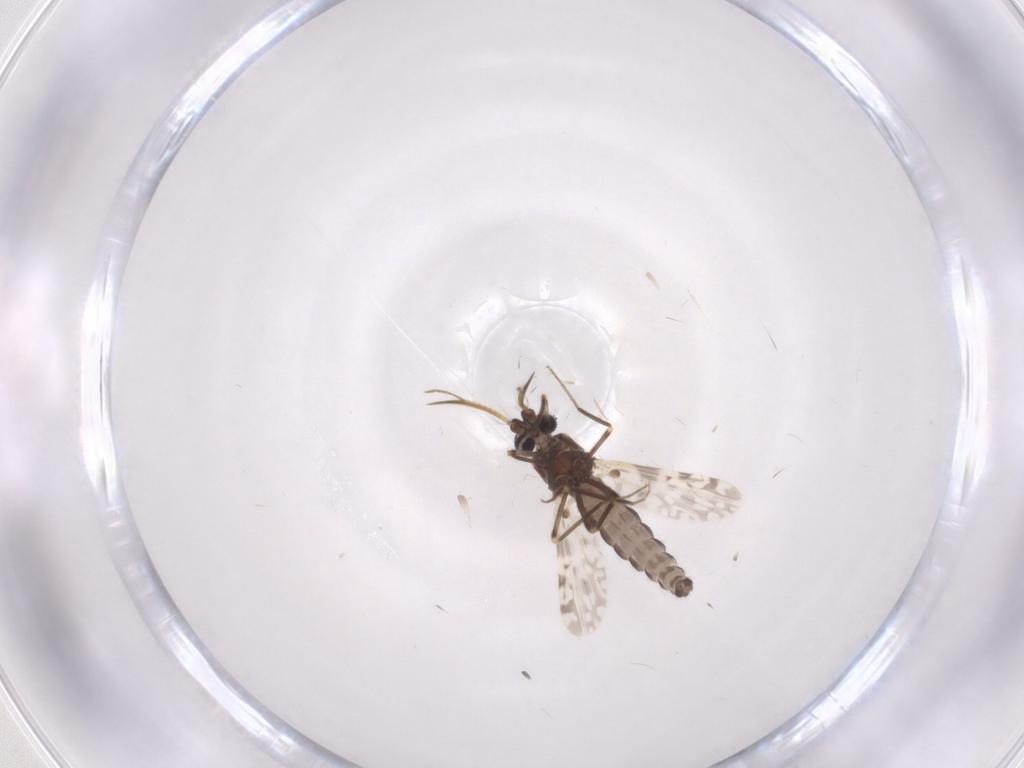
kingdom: Animalia
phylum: Arthropoda
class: Insecta
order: Diptera
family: Ceratopogonidae
